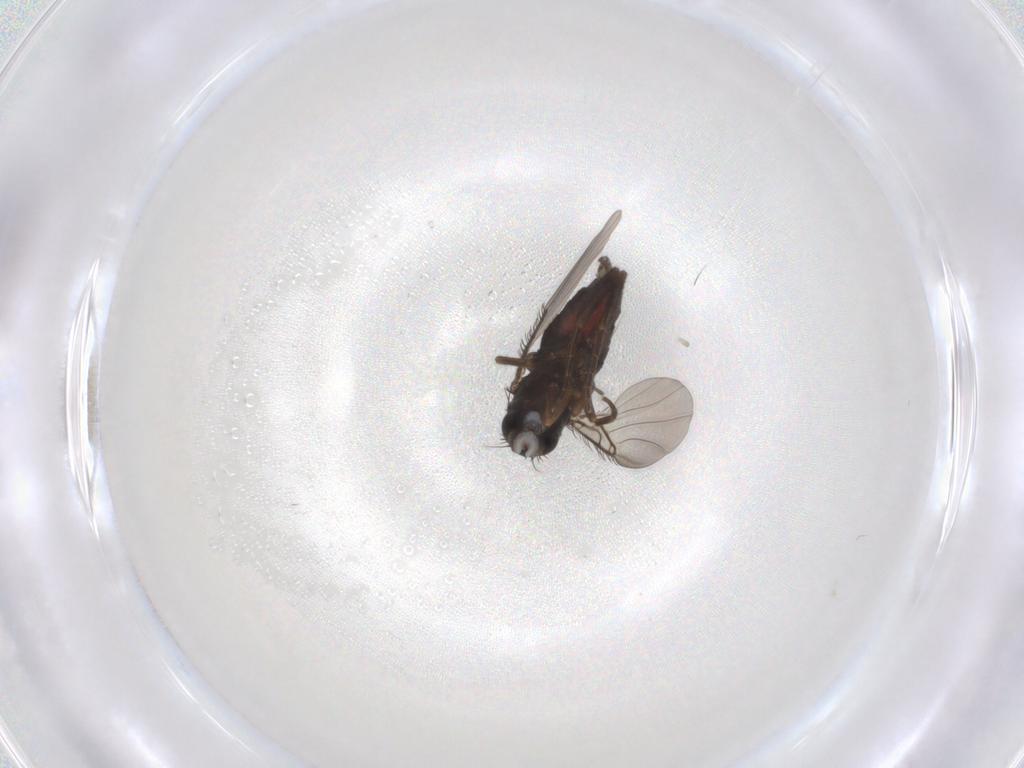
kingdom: Animalia
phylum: Arthropoda
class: Insecta
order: Diptera
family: Phoridae
